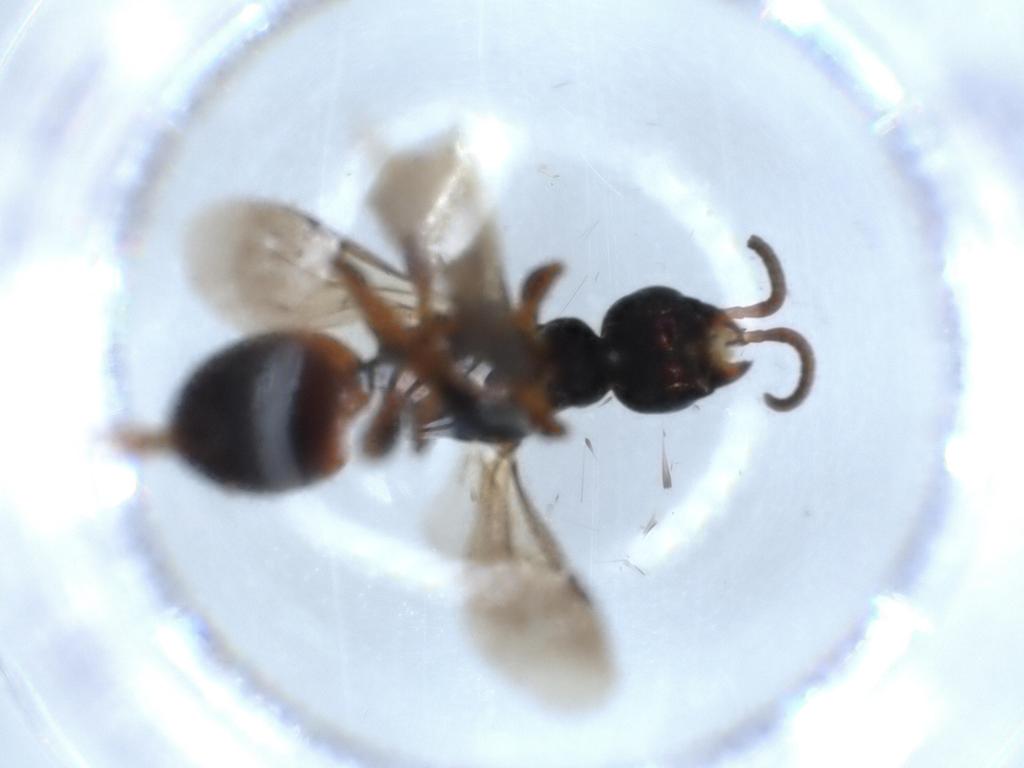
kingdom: Animalia
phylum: Arthropoda
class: Insecta
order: Hymenoptera
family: Chrysididae
